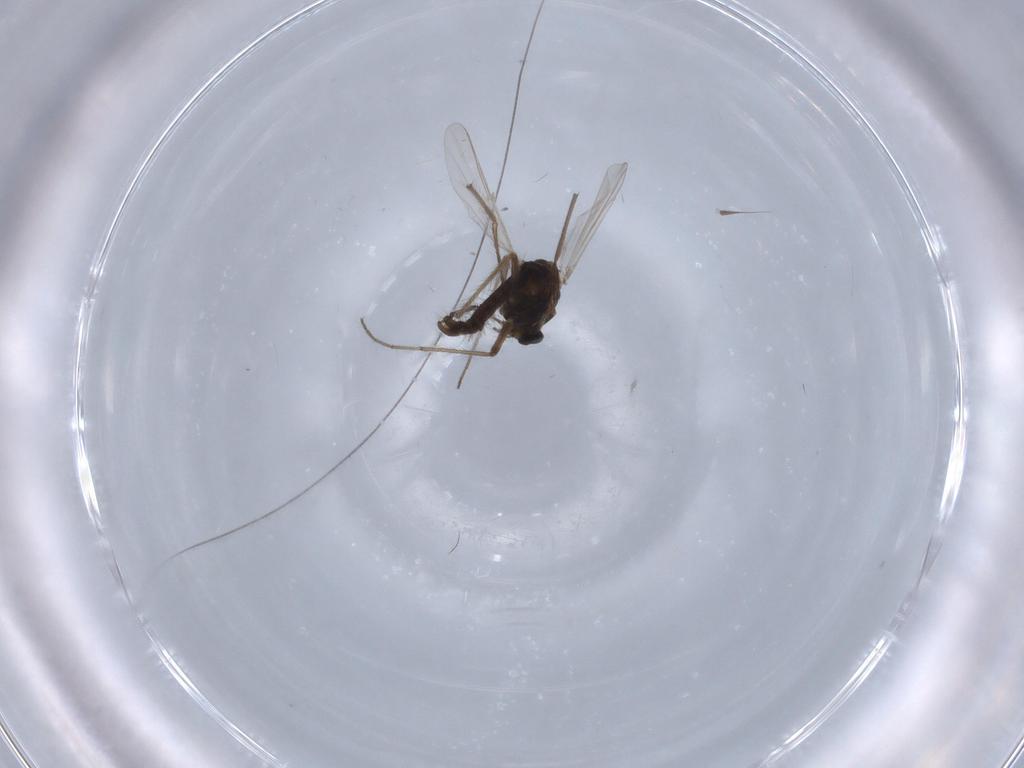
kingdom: Animalia
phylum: Arthropoda
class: Insecta
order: Diptera
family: Chironomidae
